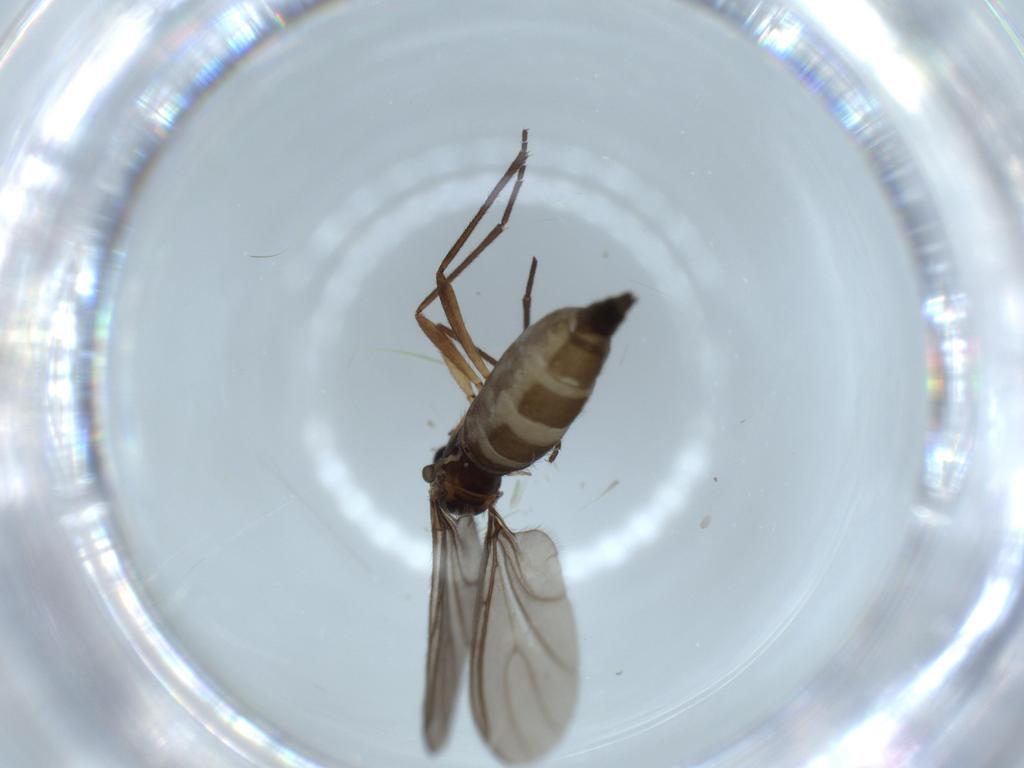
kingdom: Animalia
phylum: Arthropoda
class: Insecta
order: Diptera
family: Sciaridae
